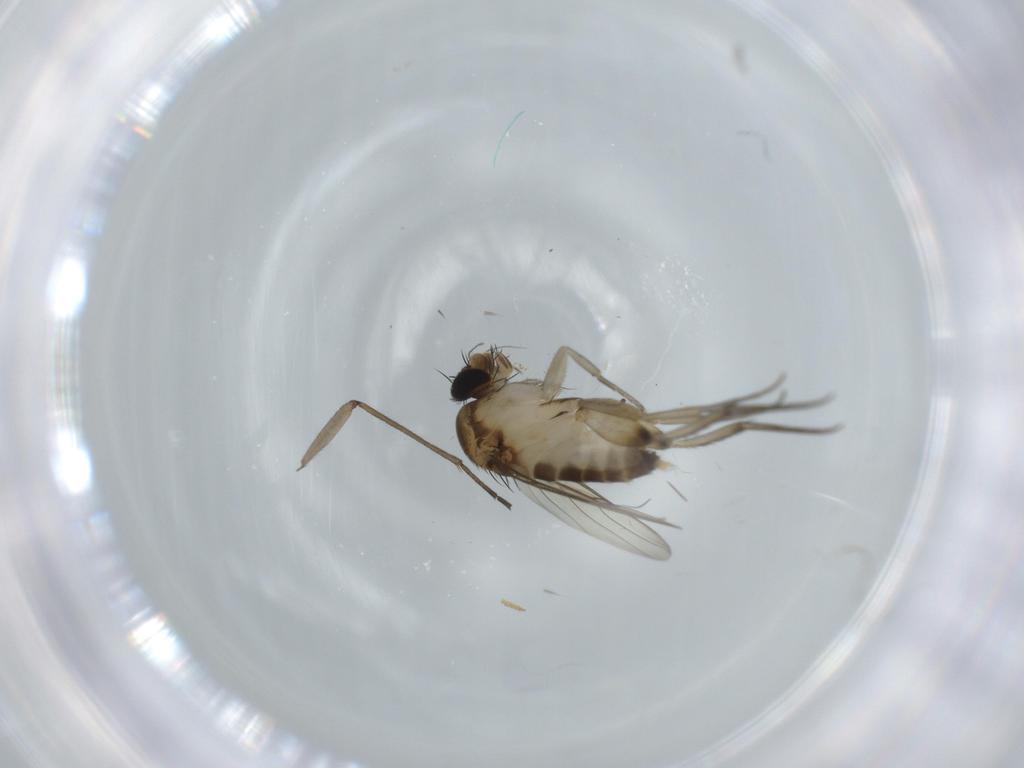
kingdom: Animalia
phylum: Arthropoda
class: Insecta
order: Diptera
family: Phoridae
